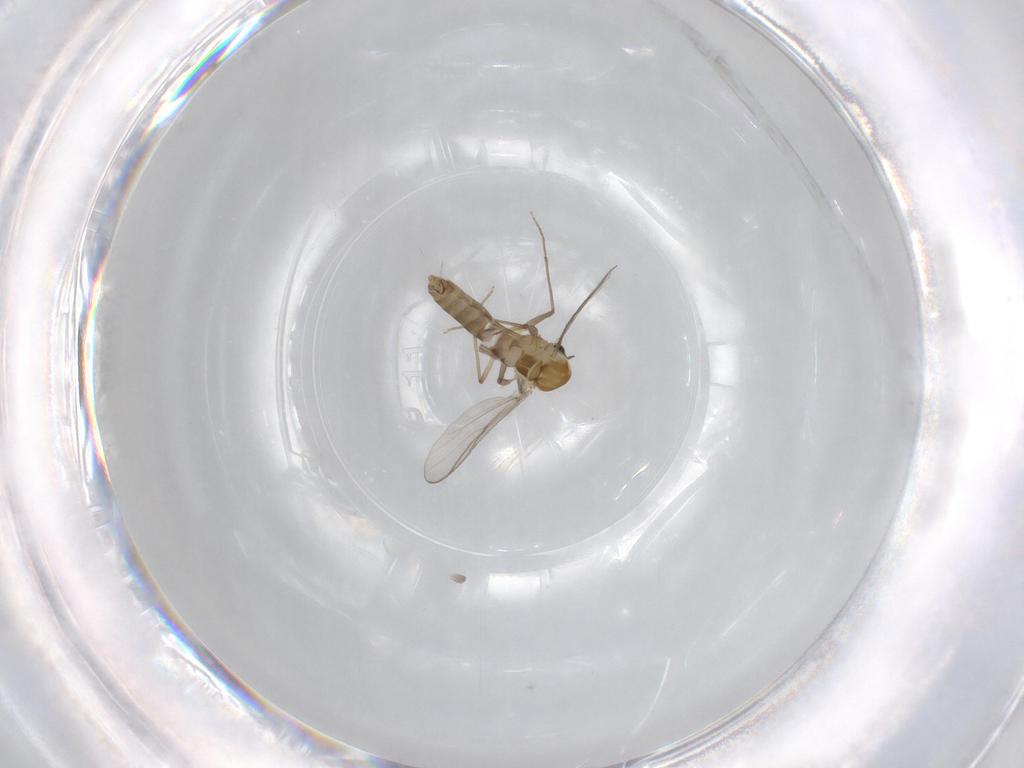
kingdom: Animalia
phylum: Arthropoda
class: Insecta
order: Diptera
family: Chironomidae
